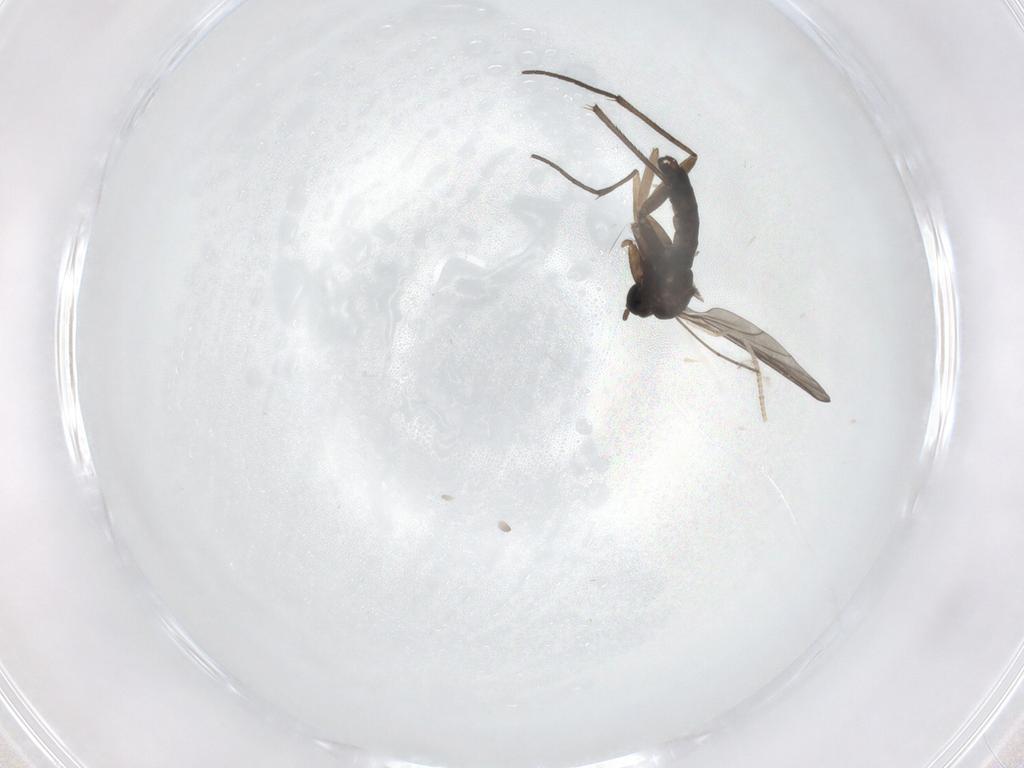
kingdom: Animalia
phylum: Arthropoda
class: Insecta
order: Diptera
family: Sciaridae
